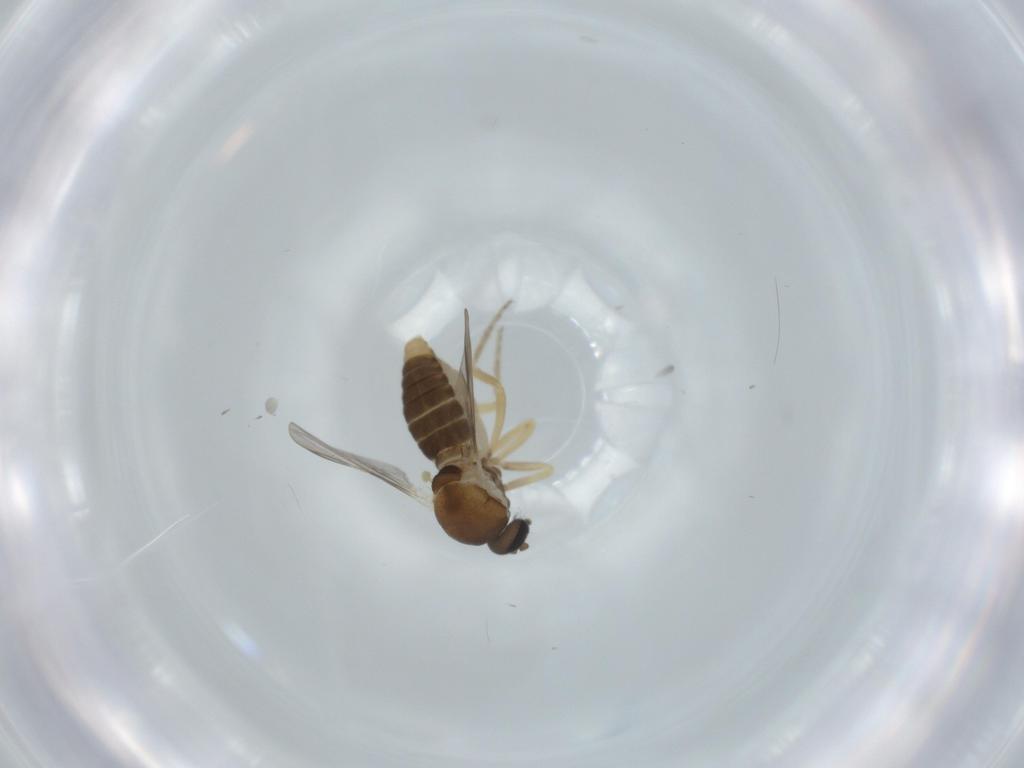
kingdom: Animalia
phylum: Arthropoda
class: Insecta
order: Diptera
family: Ceratopogonidae
